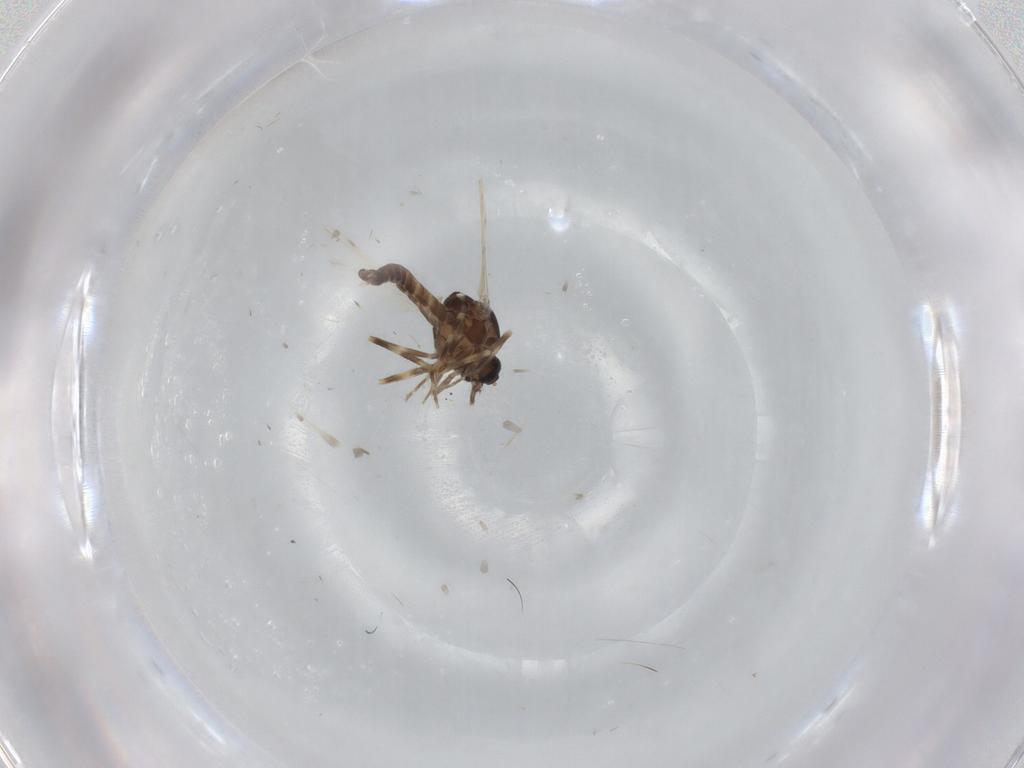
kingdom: Animalia
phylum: Arthropoda
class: Insecta
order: Diptera
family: Ceratopogonidae
